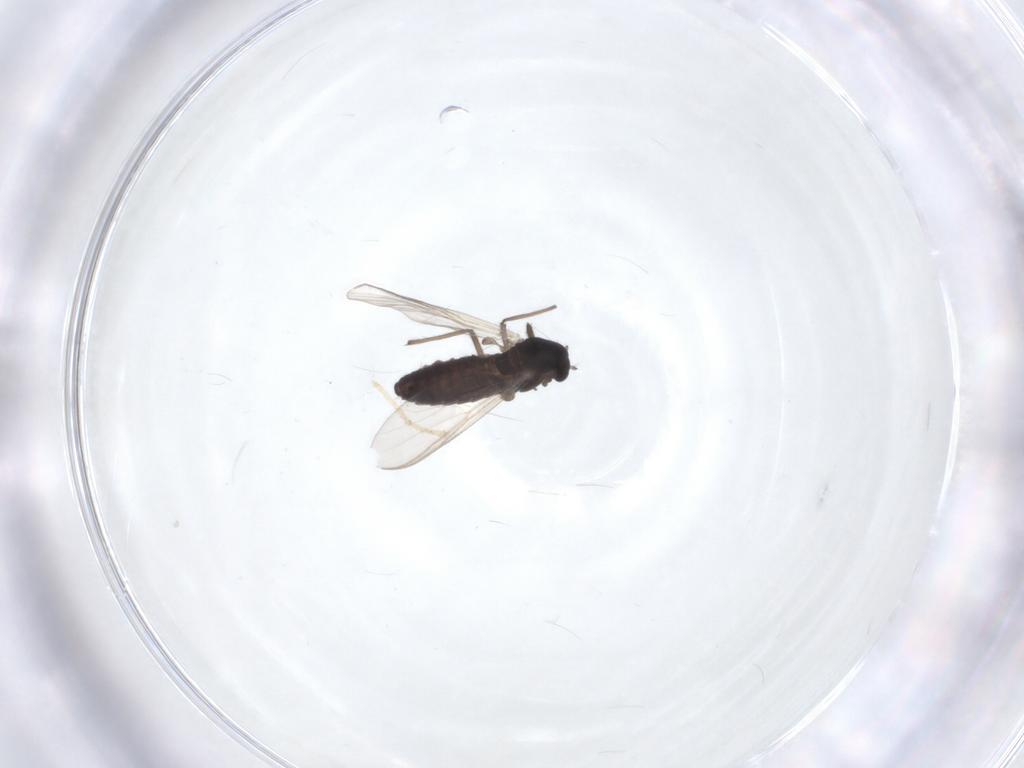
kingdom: Animalia
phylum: Arthropoda
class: Insecta
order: Diptera
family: Chironomidae
